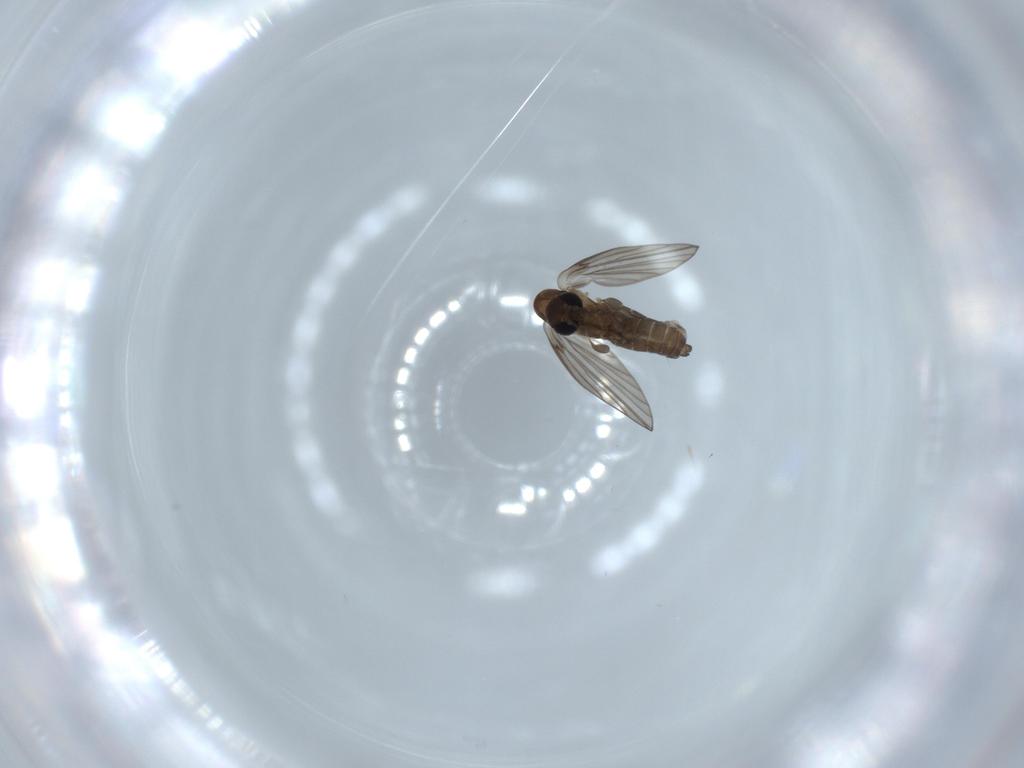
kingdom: Animalia
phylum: Arthropoda
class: Insecta
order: Diptera
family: Psychodidae
